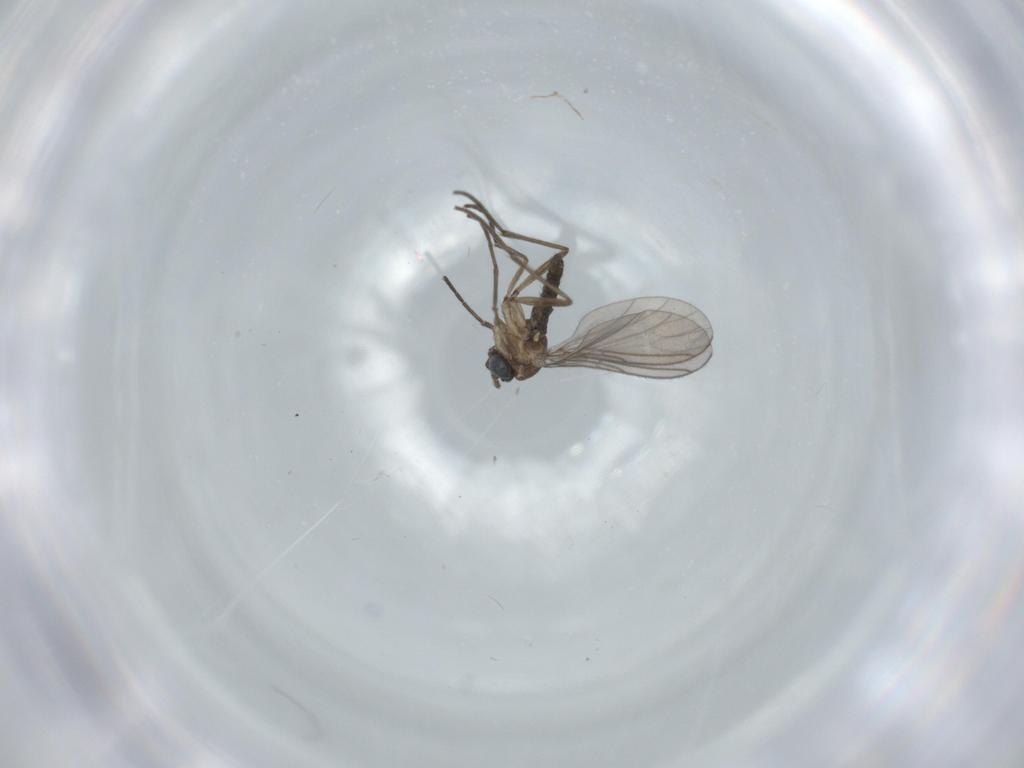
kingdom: Animalia
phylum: Arthropoda
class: Insecta
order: Diptera
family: Sciaridae
